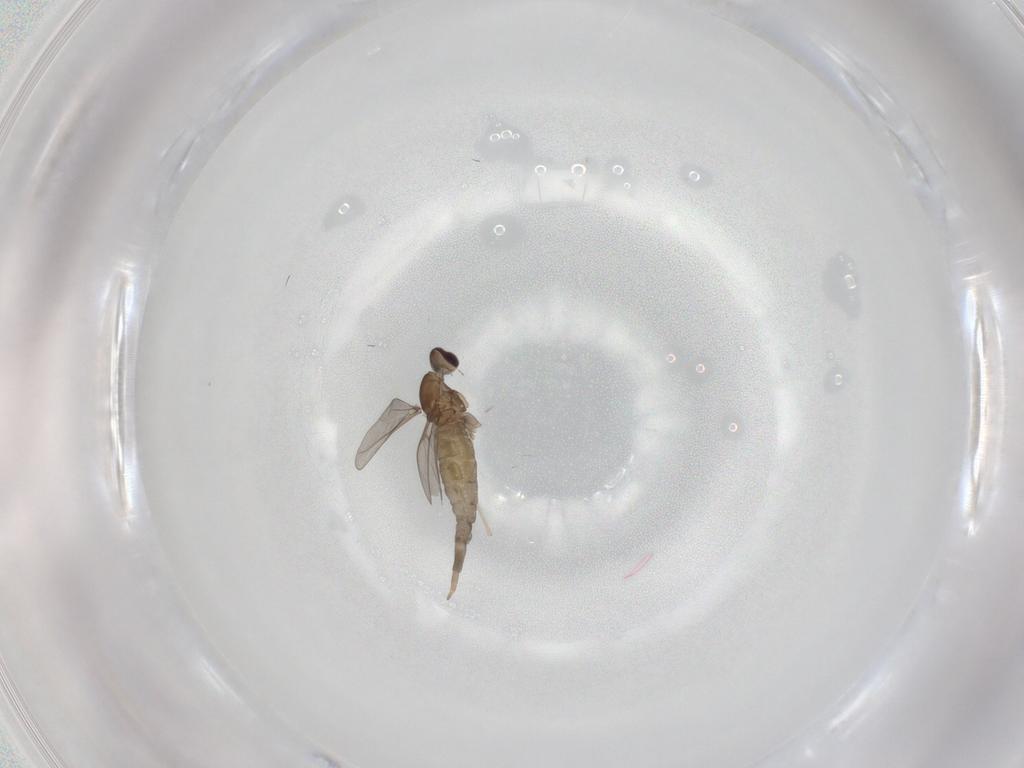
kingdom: Animalia
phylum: Arthropoda
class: Insecta
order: Diptera
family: Cecidomyiidae
